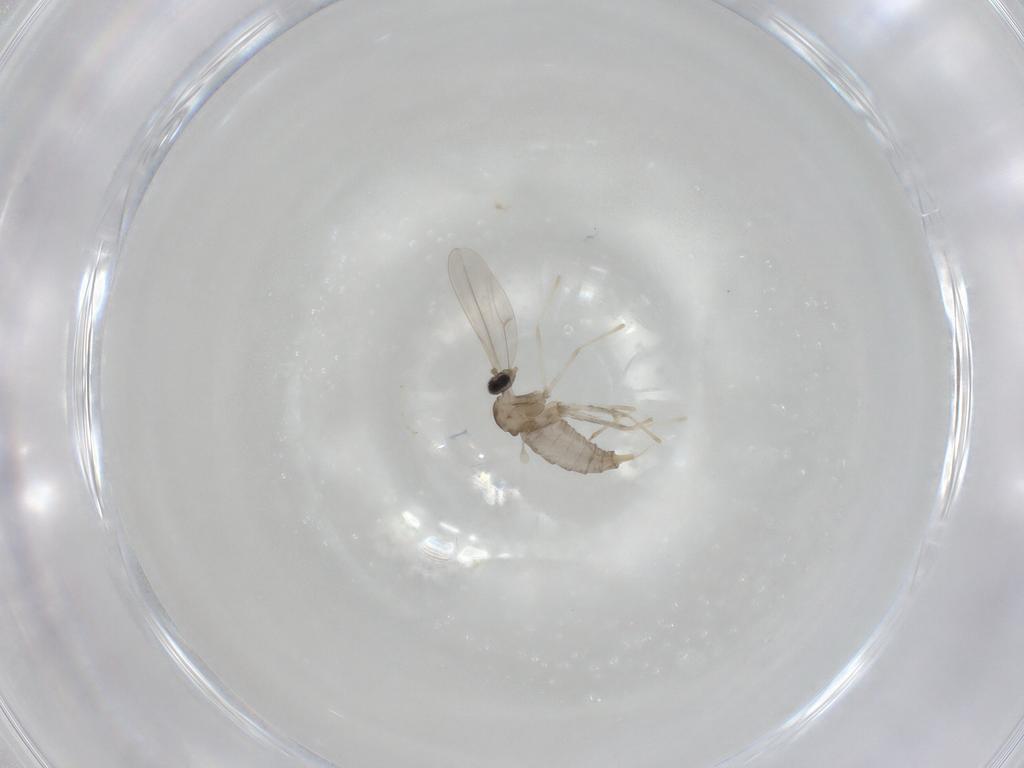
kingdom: Animalia
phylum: Arthropoda
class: Insecta
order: Diptera
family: Cecidomyiidae
